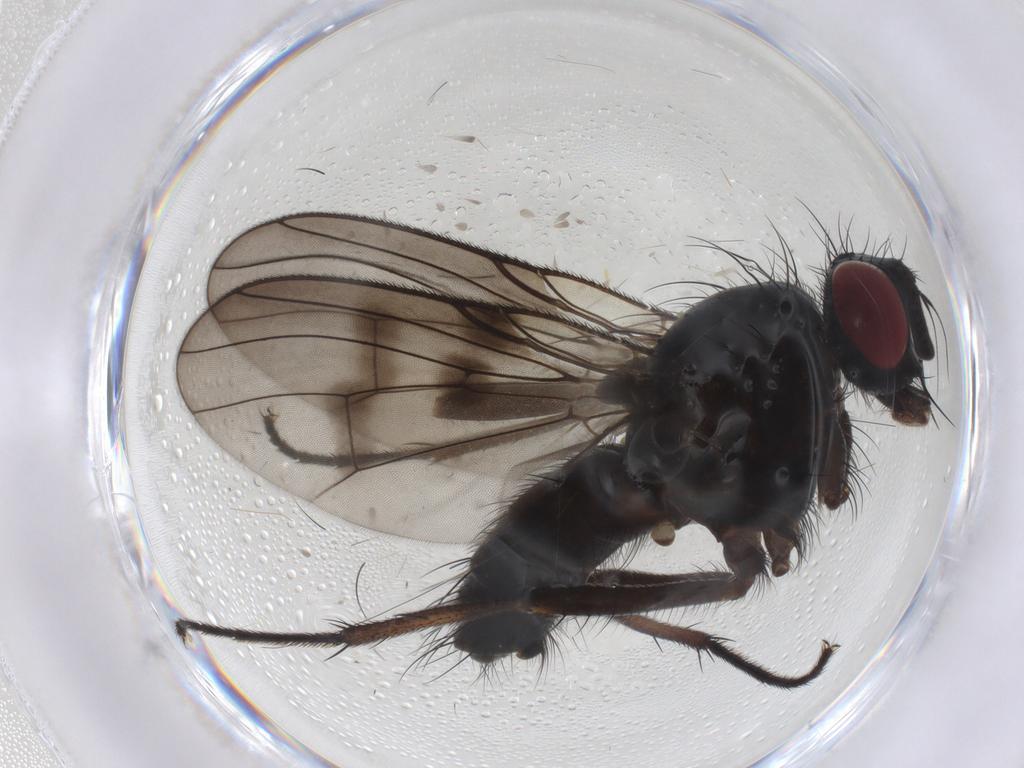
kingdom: Animalia
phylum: Arthropoda
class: Insecta
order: Diptera
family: Muscidae
